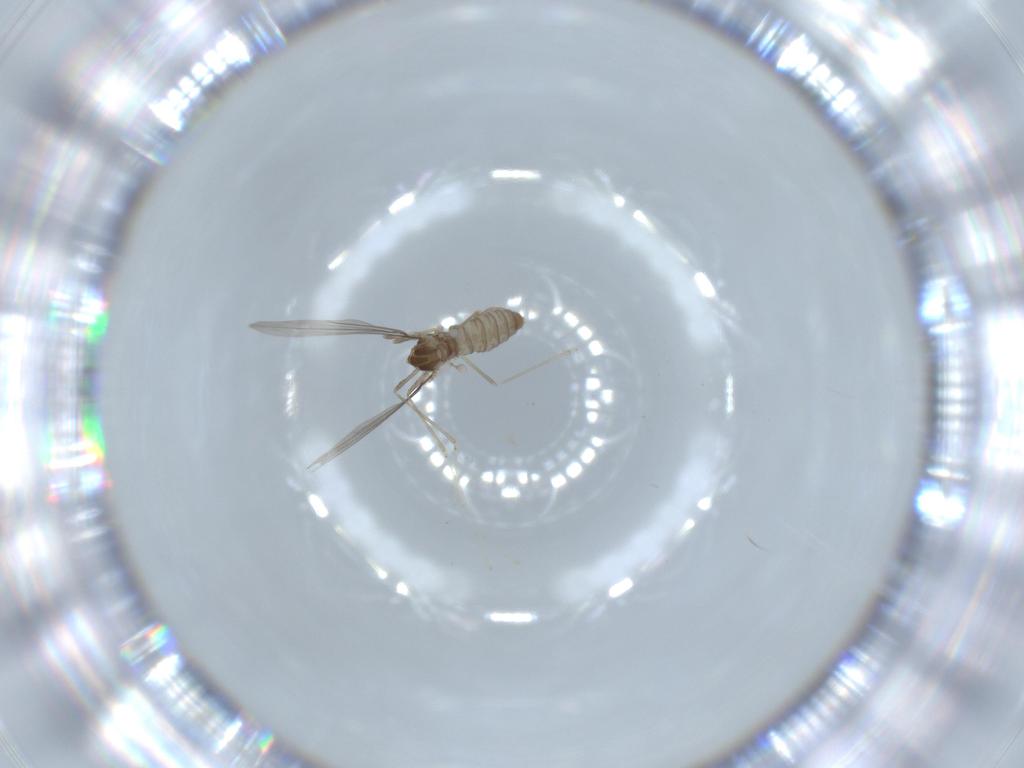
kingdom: Animalia
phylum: Arthropoda
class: Insecta
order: Diptera
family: Cecidomyiidae
